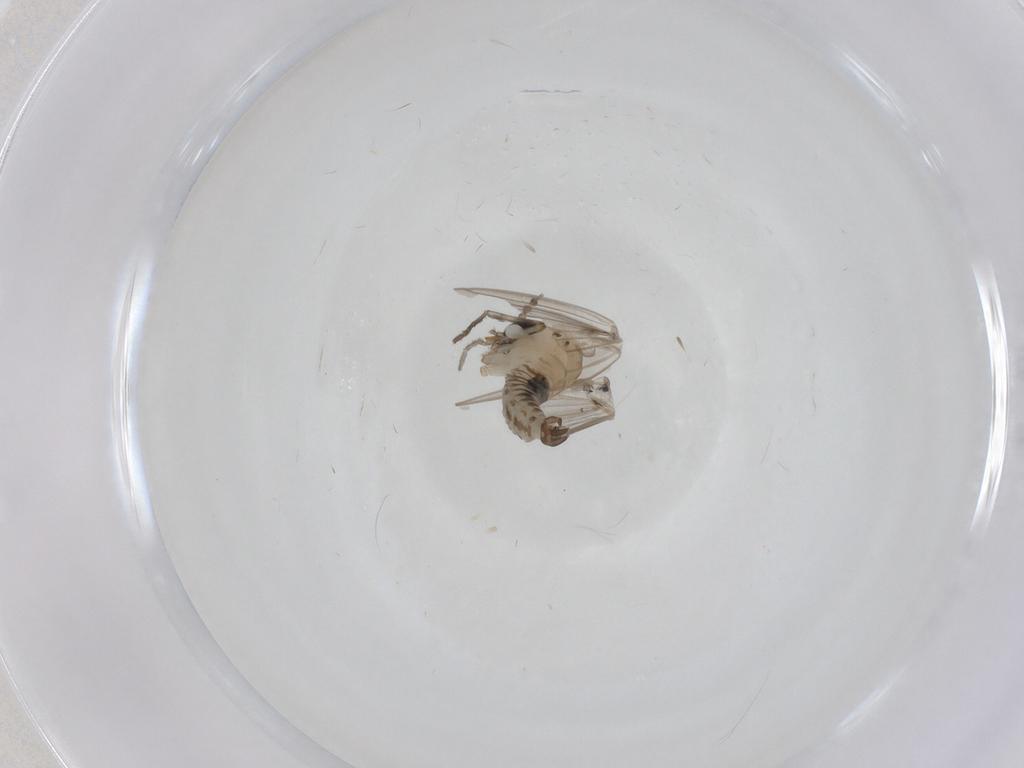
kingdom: Animalia
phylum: Arthropoda
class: Insecta
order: Diptera
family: Psychodidae
